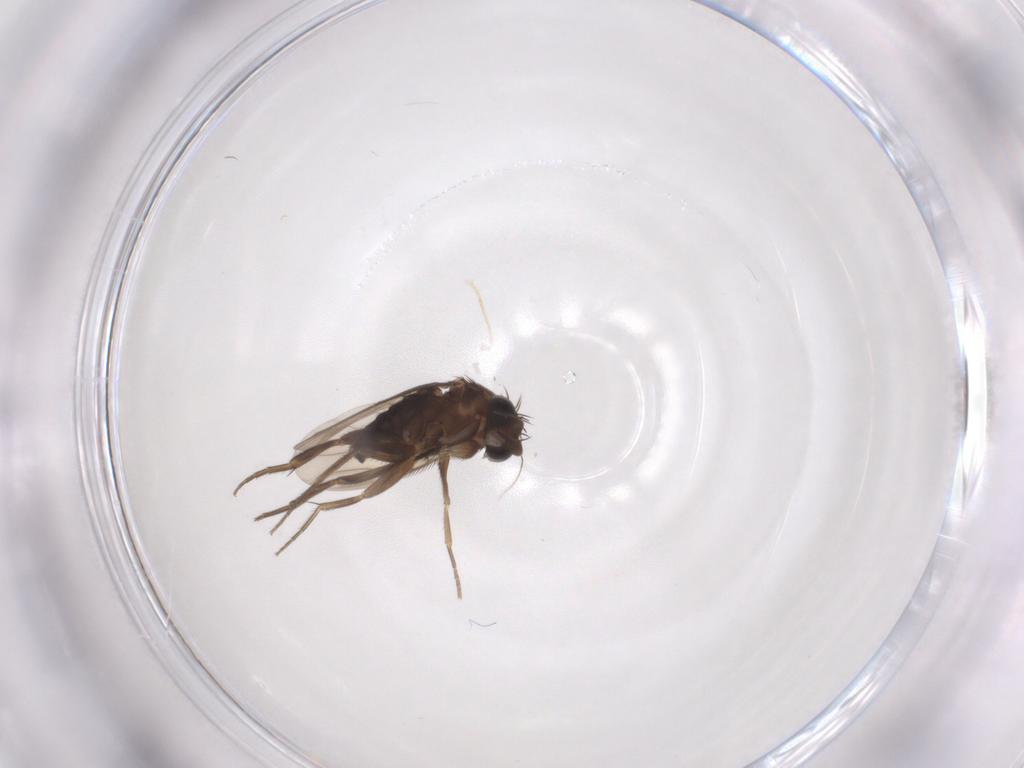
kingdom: Animalia
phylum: Arthropoda
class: Insecta
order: Diptera
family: Phoridae
